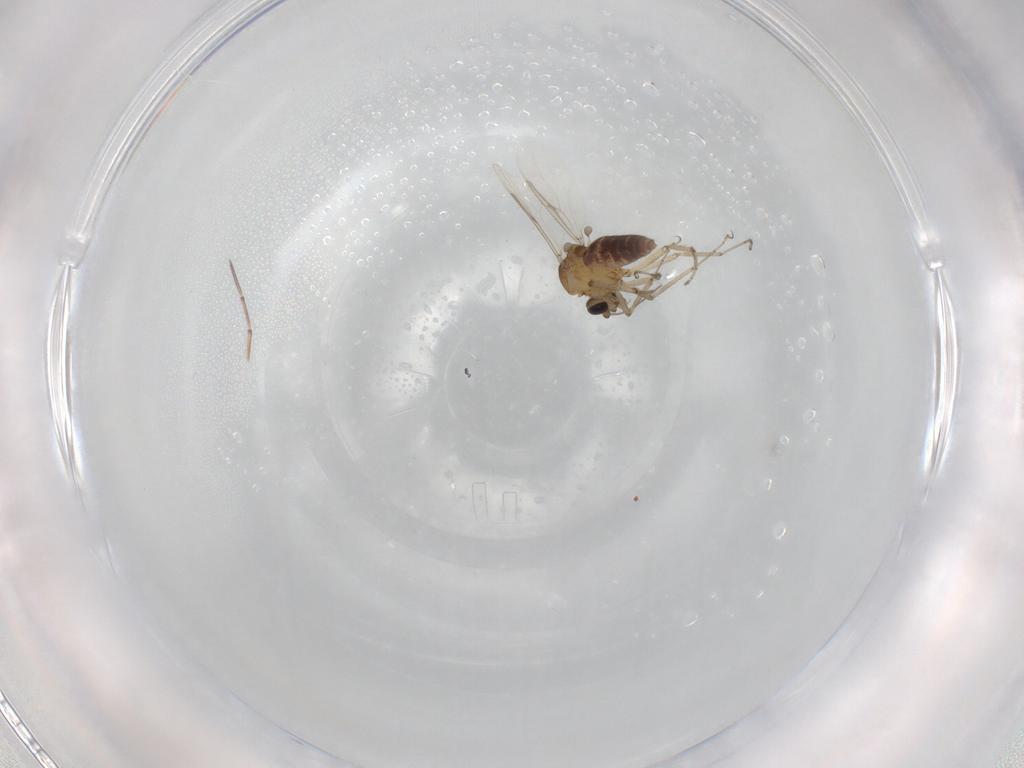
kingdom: Animalia
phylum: Arthropoda
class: Insecta
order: Diptera
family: Ceratopogonidae
